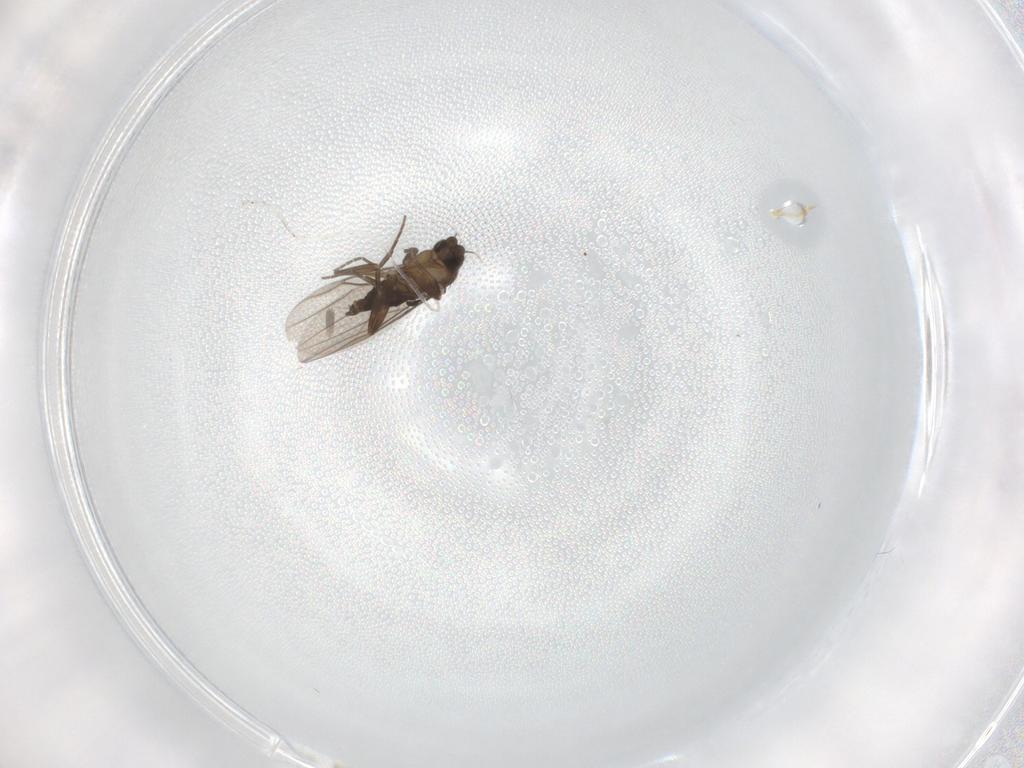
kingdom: Animalia
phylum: Arthropoda
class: Insecta
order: Diptera
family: Phoridae
